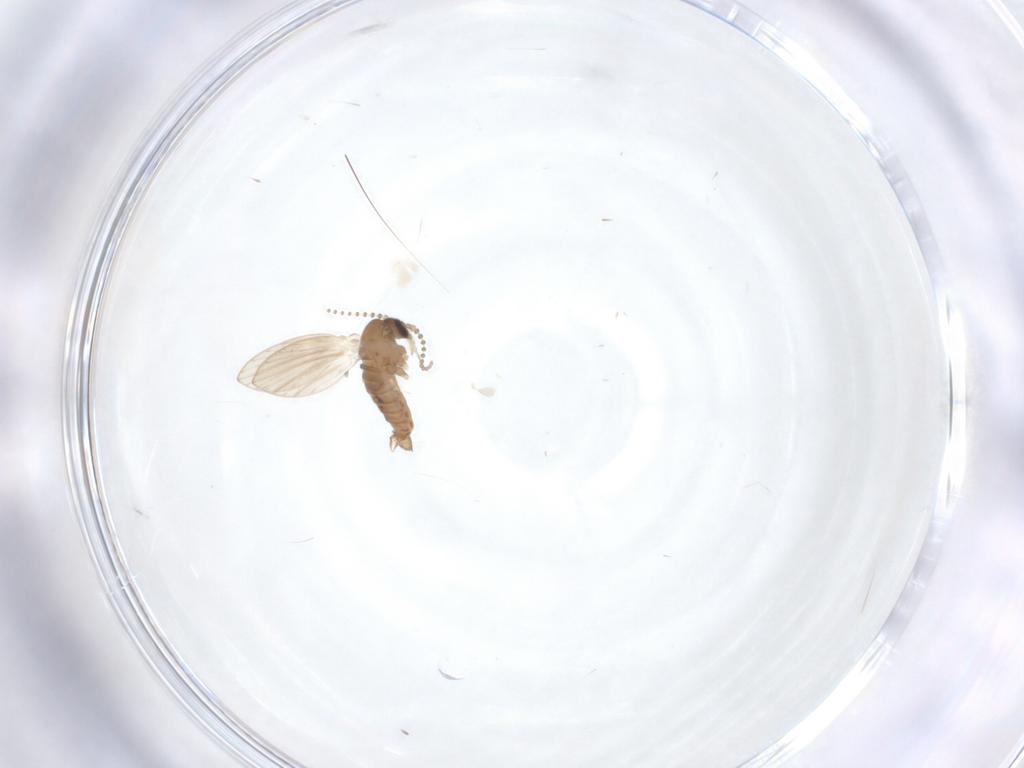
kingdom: Animalia
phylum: Arthropoda
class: Insecta
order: Diptera
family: Psychodidae
